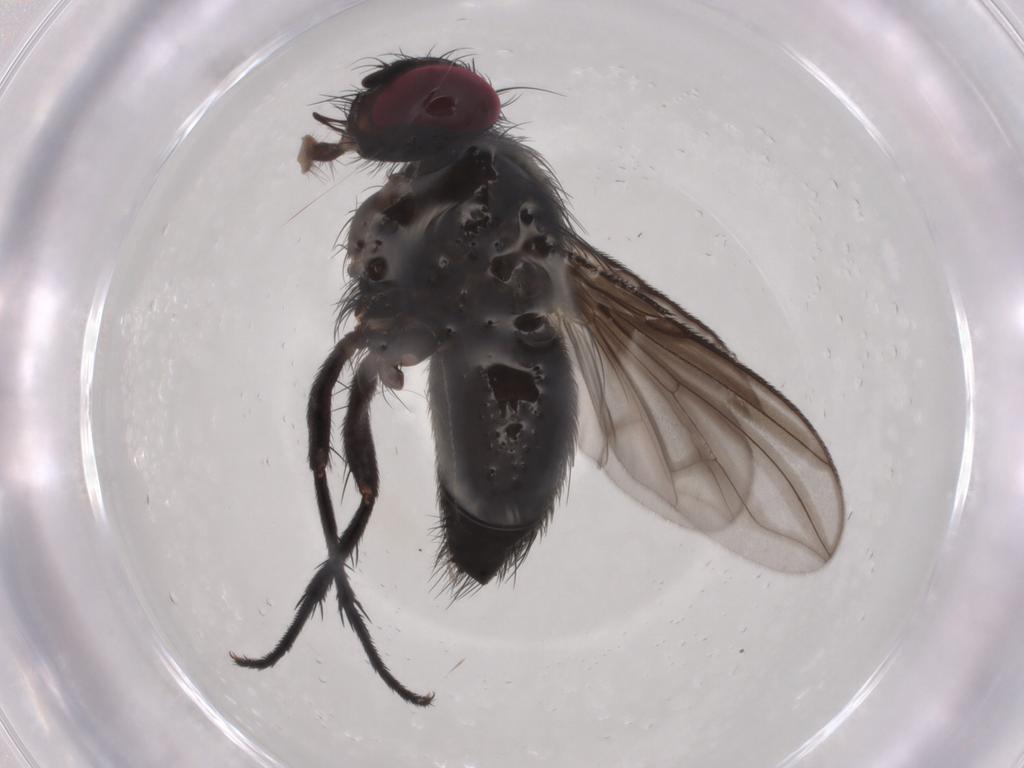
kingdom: Animalia
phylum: Arthropoda
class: Insecta
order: Diptera
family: Calliphoridae
